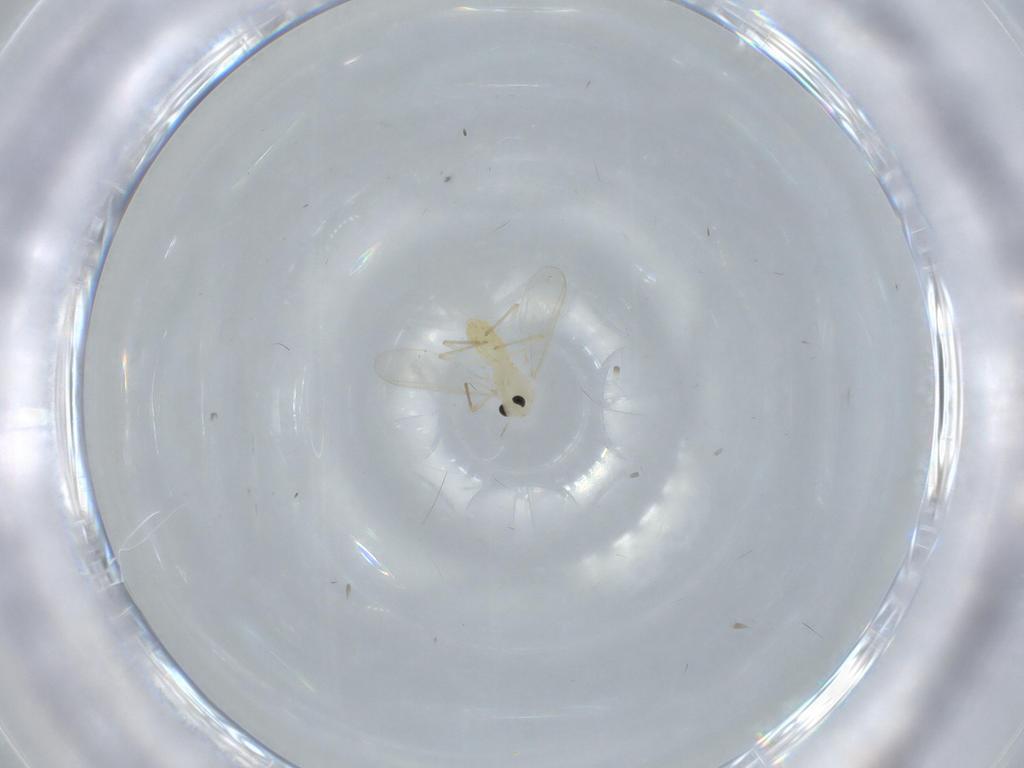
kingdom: Animalia
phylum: Arthropoda
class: Insecta
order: Diptera
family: Chironomidae
